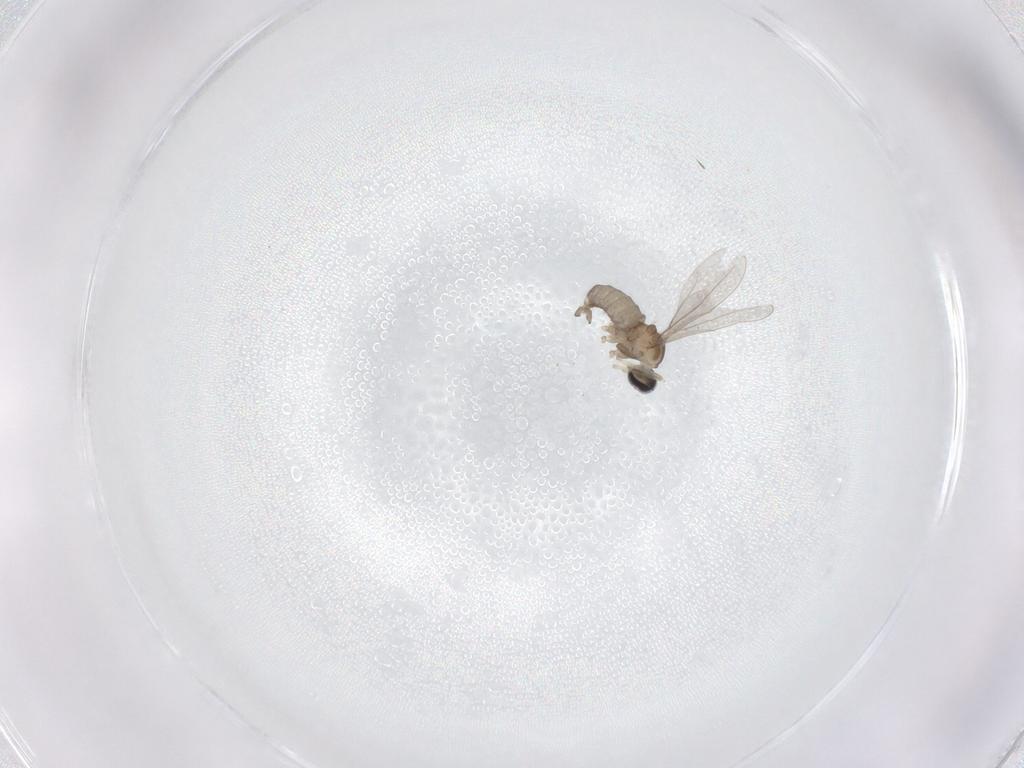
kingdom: Animalia
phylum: Arthropoda
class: Insecta
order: Diptera
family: Cecidomyiidae
